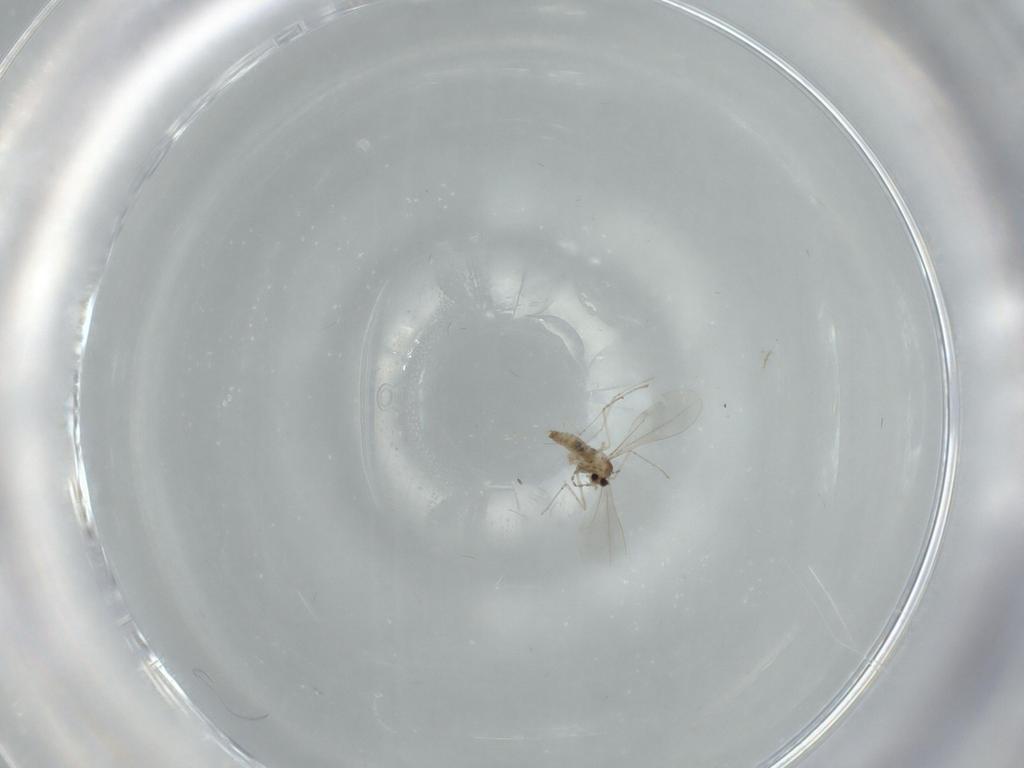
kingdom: Animalia
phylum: Arthropoda
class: Insecta
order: Diptera
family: Cecidomyiidae
